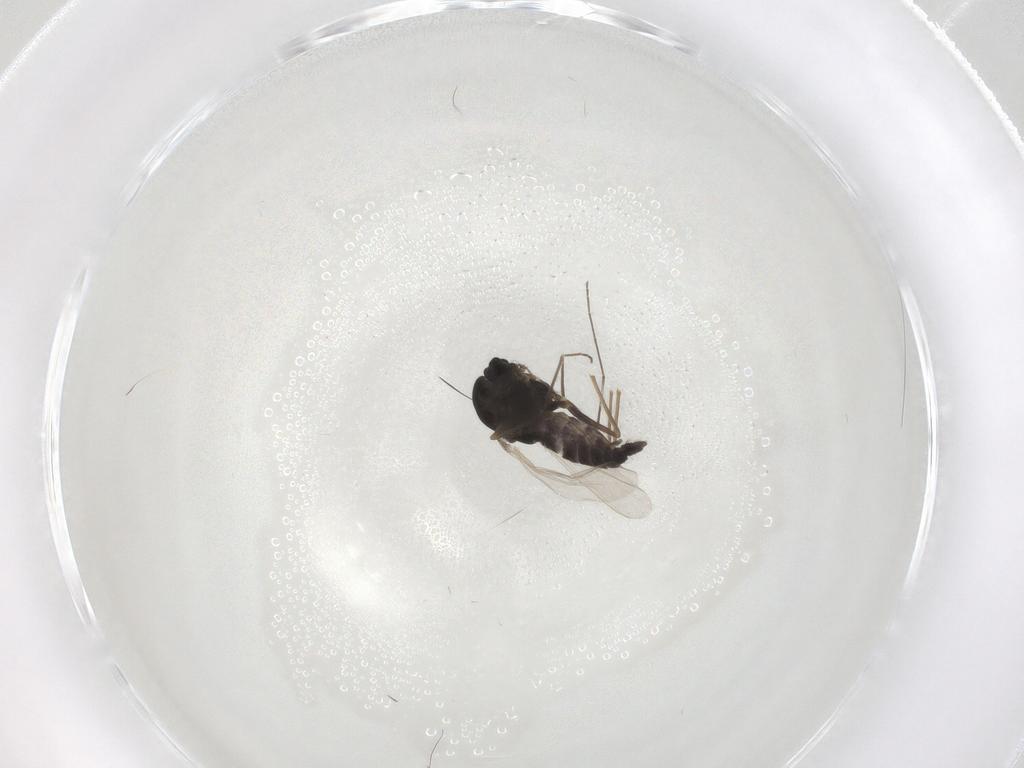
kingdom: Animalia
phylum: Arthropoda
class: Insecta
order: Diptera
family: Chironomidae
